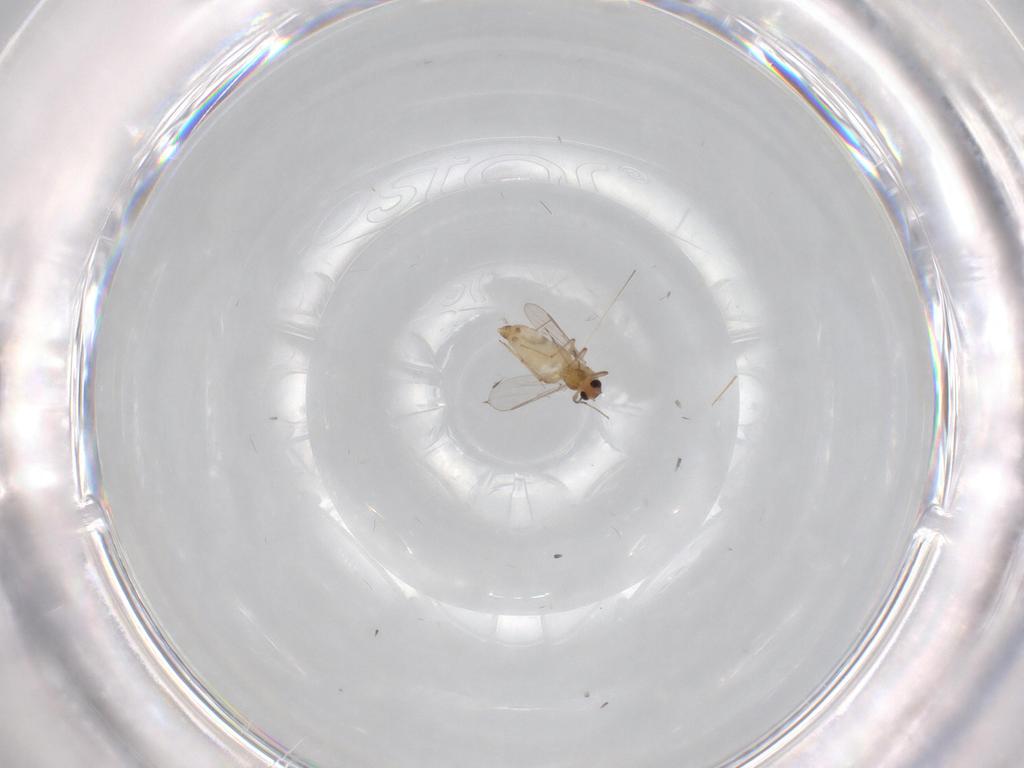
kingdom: Animalia
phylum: Arthropoda
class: Insecta
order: Diptera
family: Chironomidae
